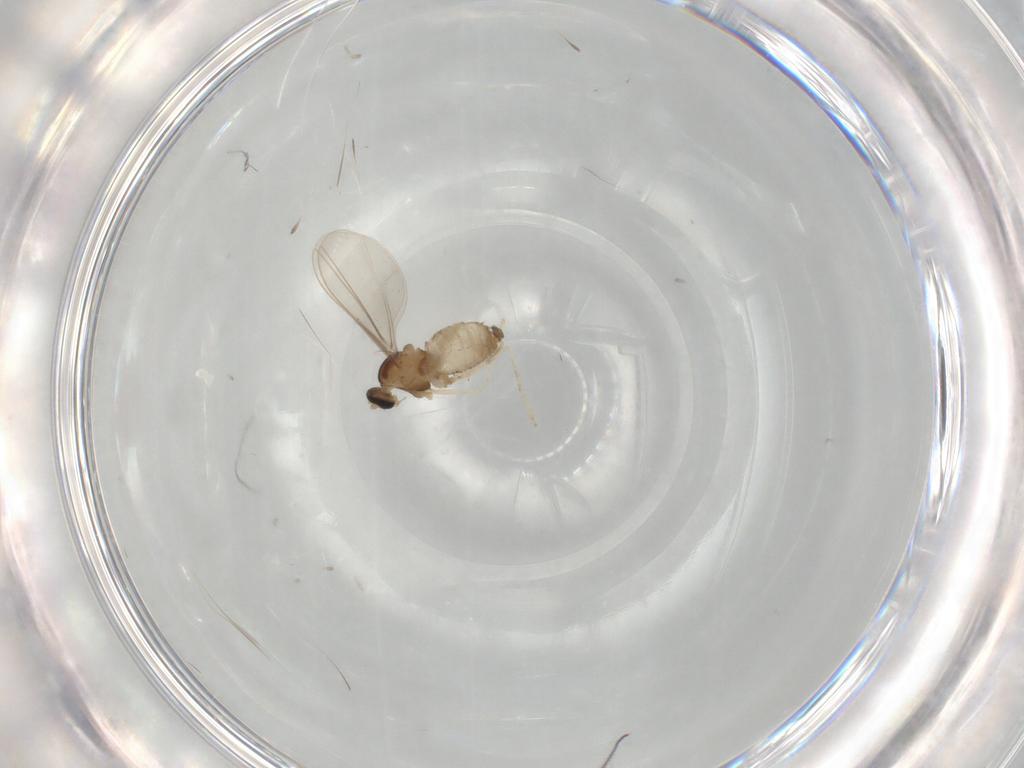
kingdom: Animalia
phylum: Arthropoda
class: Insecta
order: Diptera
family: Cecidomyiidae
